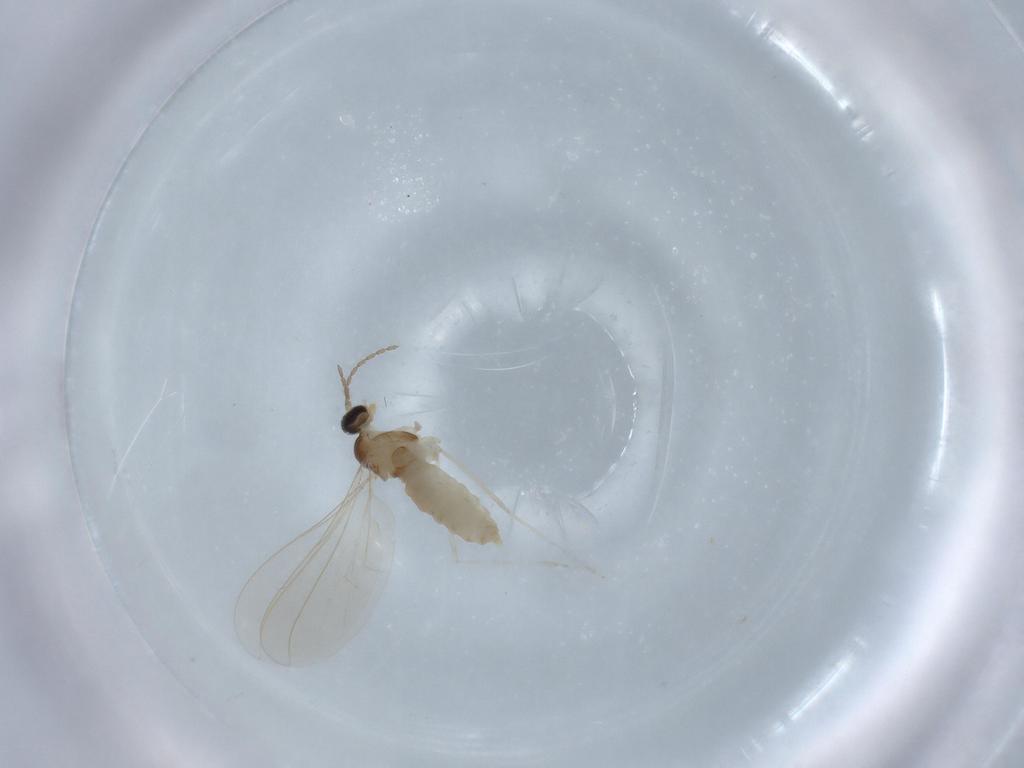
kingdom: Animalia
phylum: Arthropoda
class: Insecta
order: Diptera
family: Cecidomyiidae
